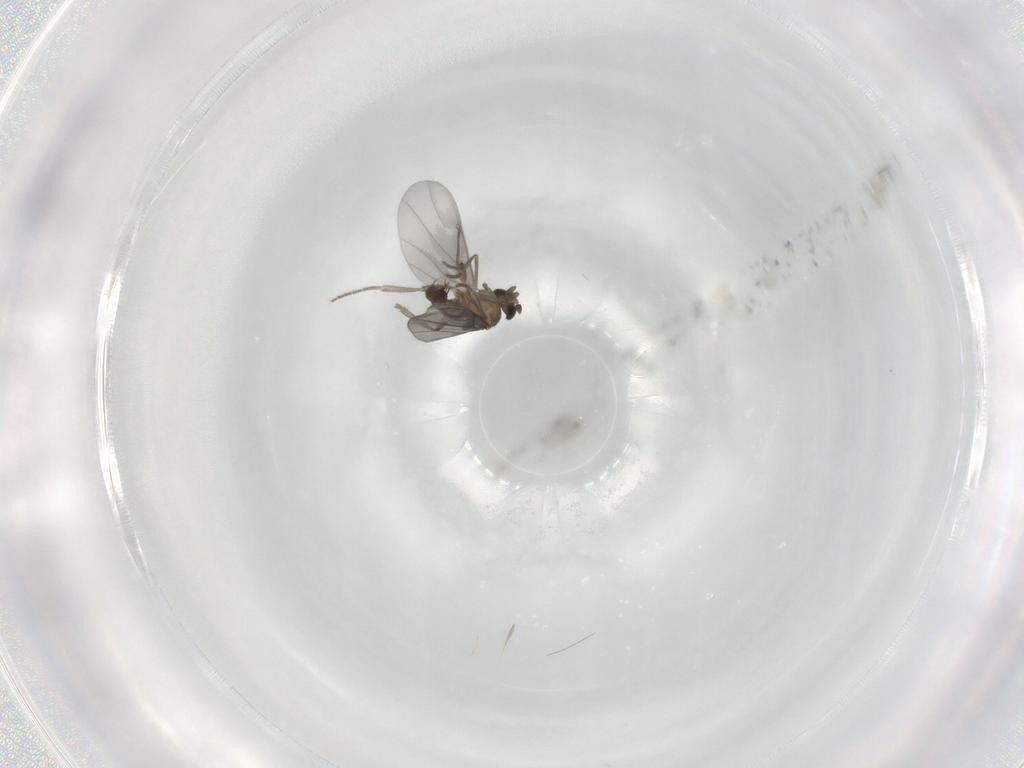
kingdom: Animalia
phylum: Arthropoda
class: Insecta
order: Diptera
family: Phoridae
